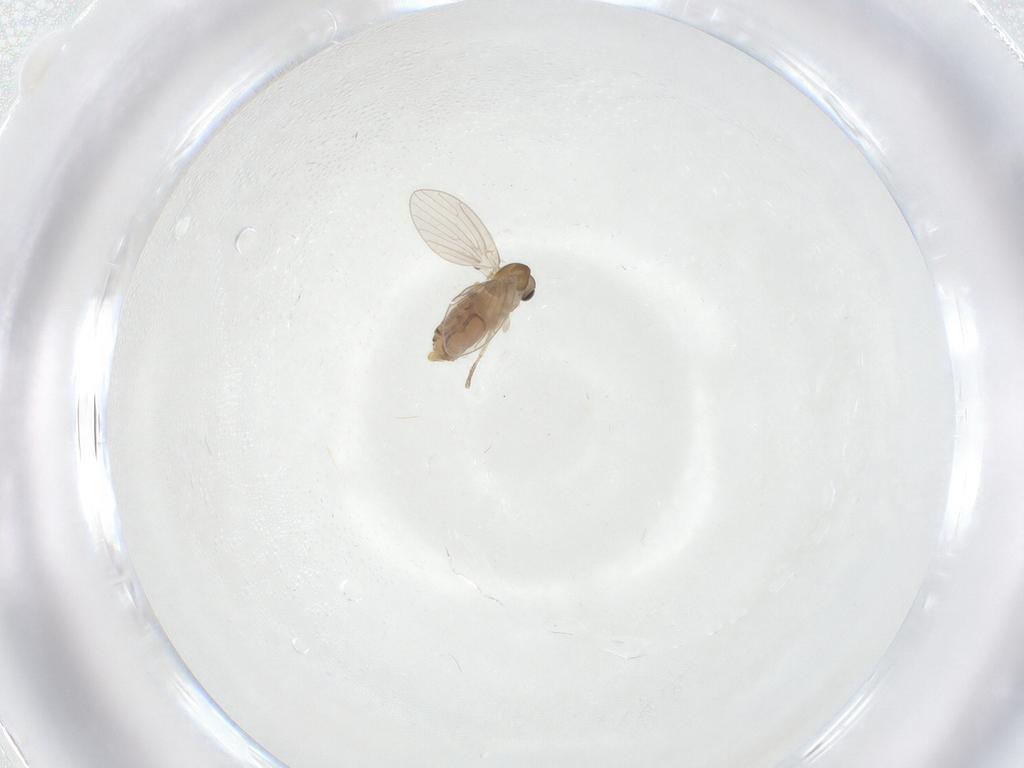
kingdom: Animalia
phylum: Arthropoda
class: Insecta
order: Diptera
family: Psychodidae
